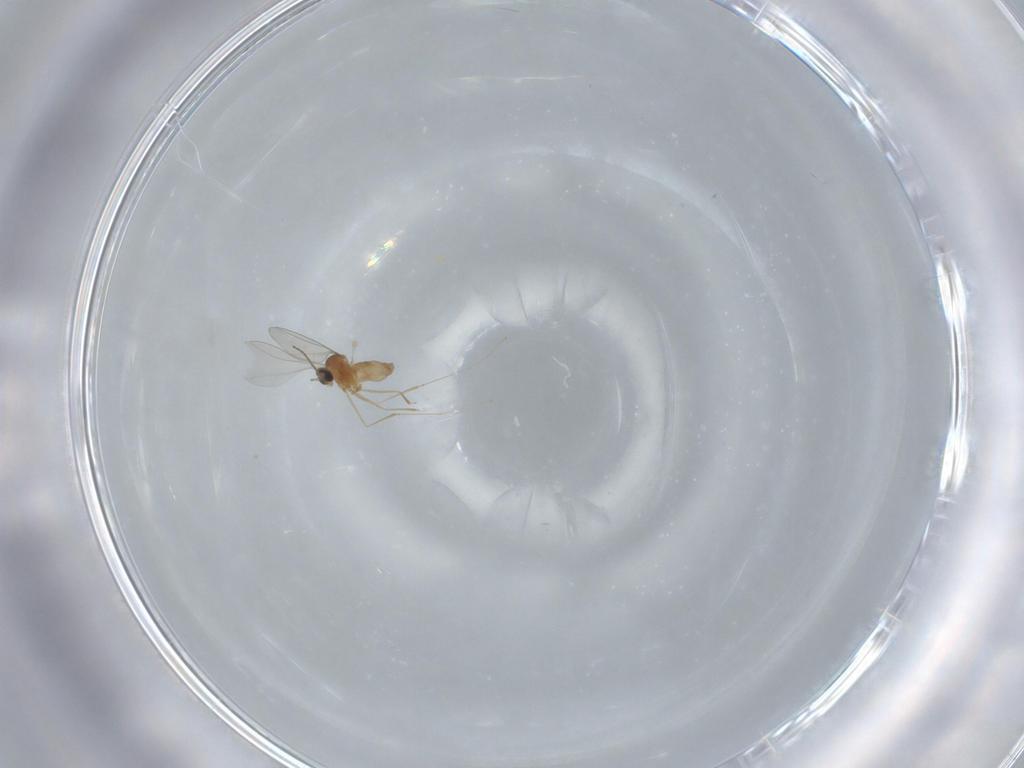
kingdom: Animalia
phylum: Arthropoda
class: Insecta
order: Diptera
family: Cecidomyiidae
